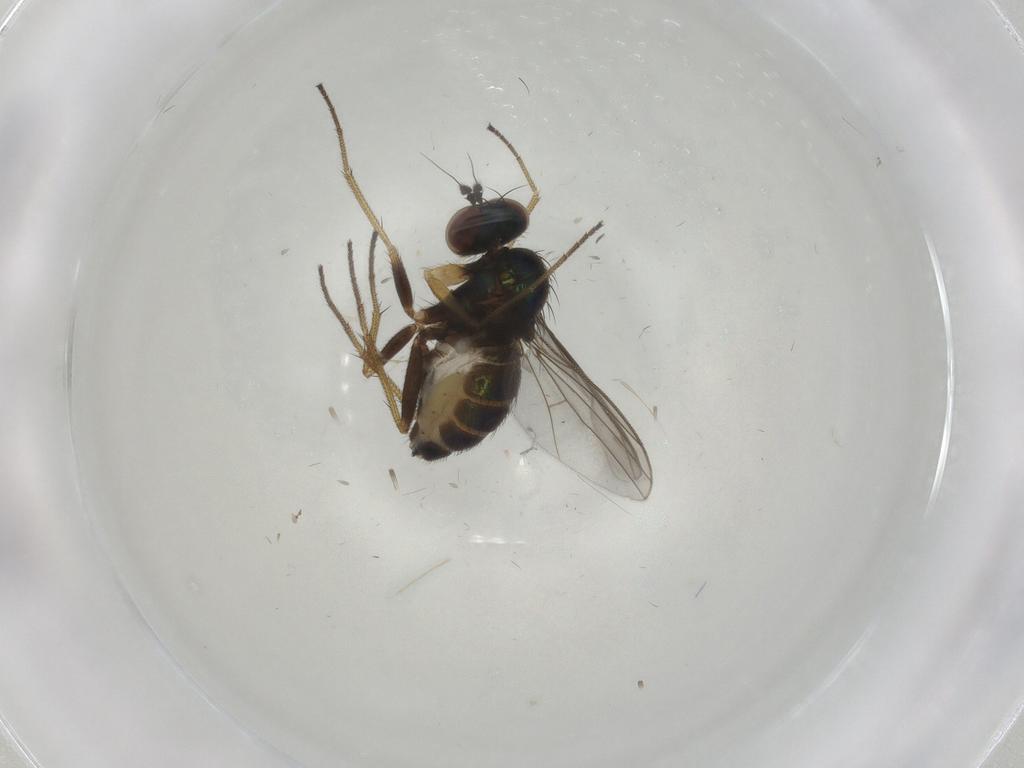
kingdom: Animalia
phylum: Arthropoda
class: Insecta
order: Diptera
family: Dolichopodidae
